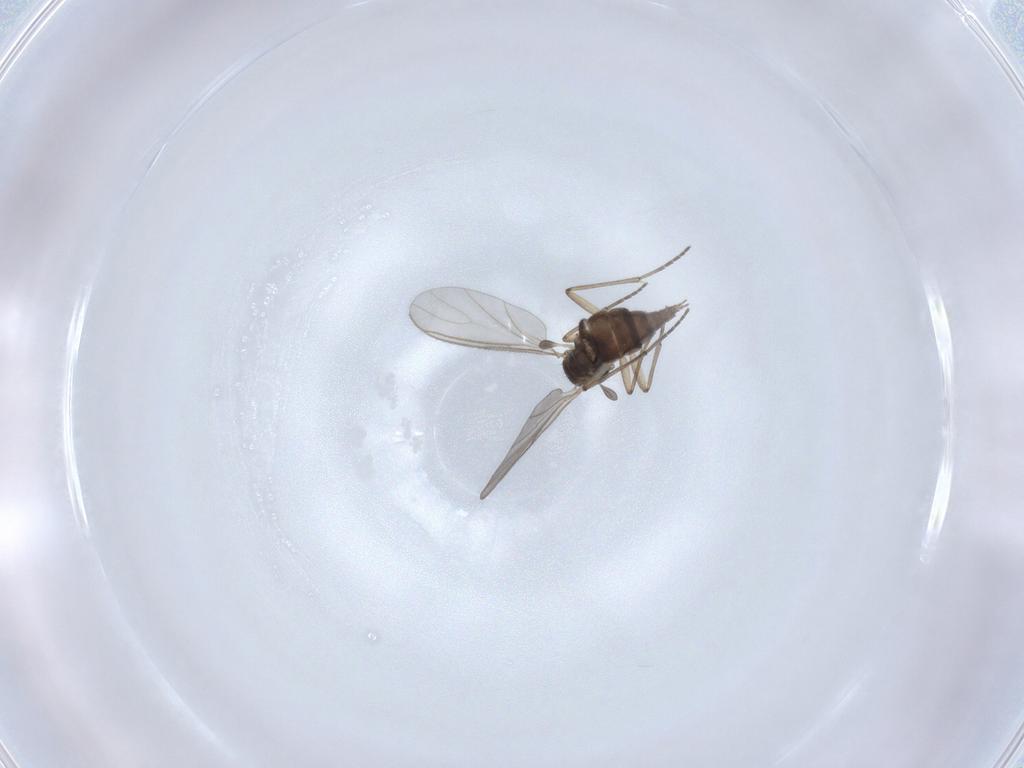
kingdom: Animalia
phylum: Arthropoda
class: Insecta
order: Diptera
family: Sciaridae
